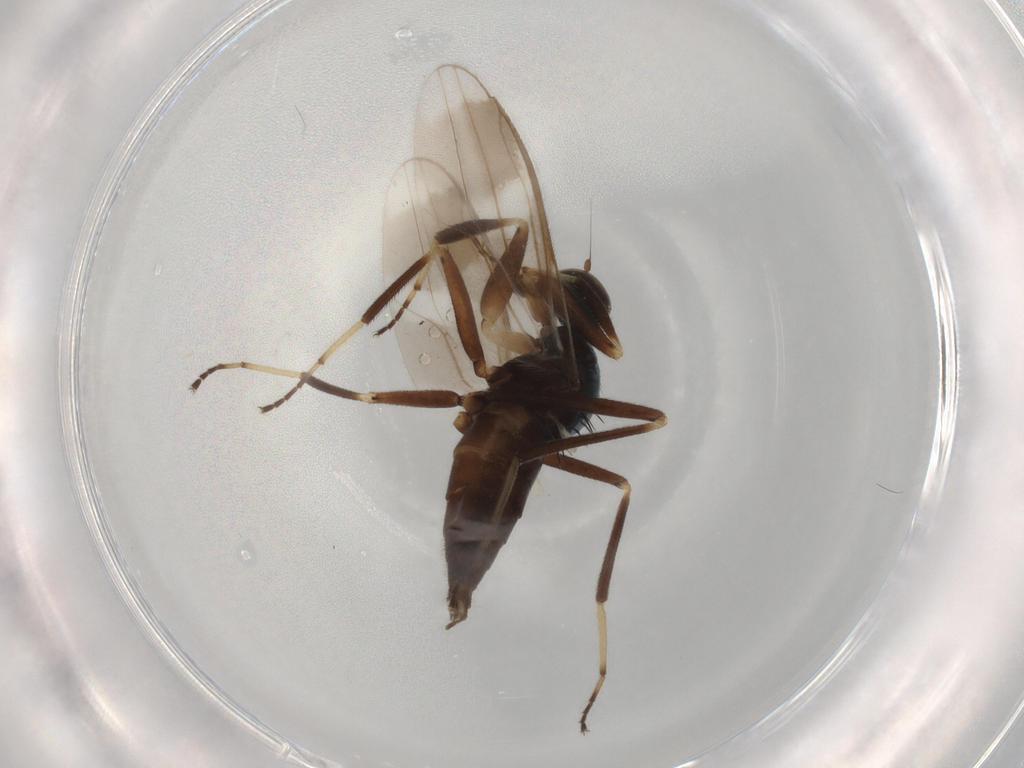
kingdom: Animalia
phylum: Arthropoda
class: Insecta
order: Diptera
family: Hybotidae
